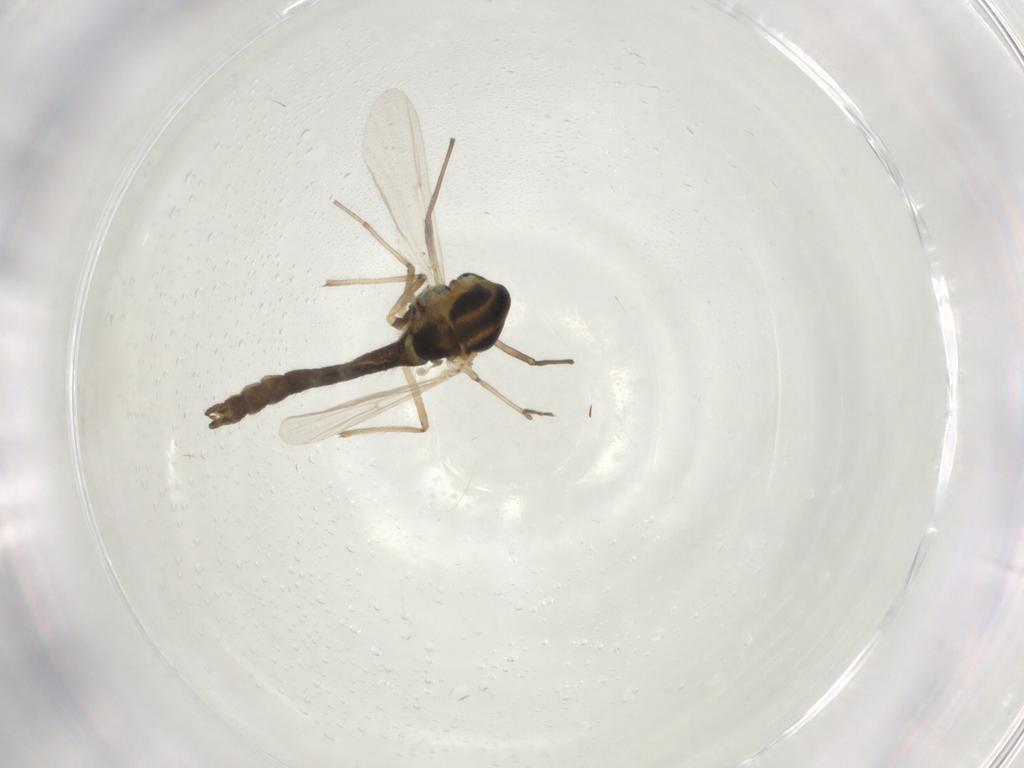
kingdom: Animalia
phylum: Arthropoda
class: Insecta
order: Diptera
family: Chironomidae
